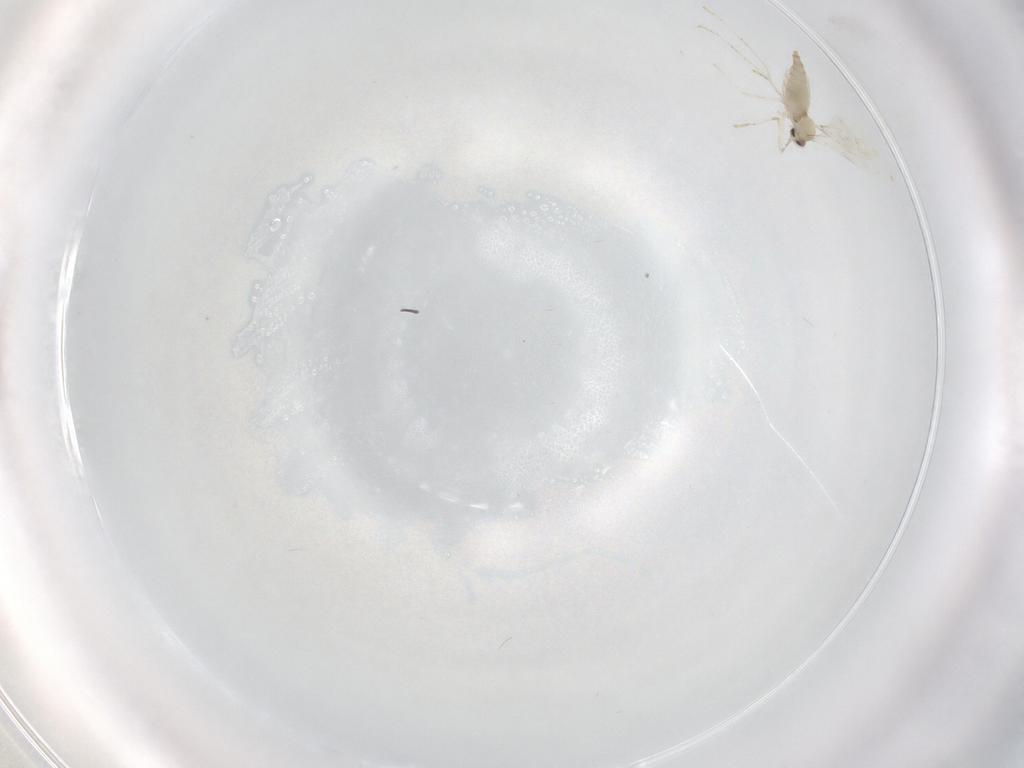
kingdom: Animalia
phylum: Arthropoda
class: Insecta
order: Diptera
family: Cecidomyiidae
